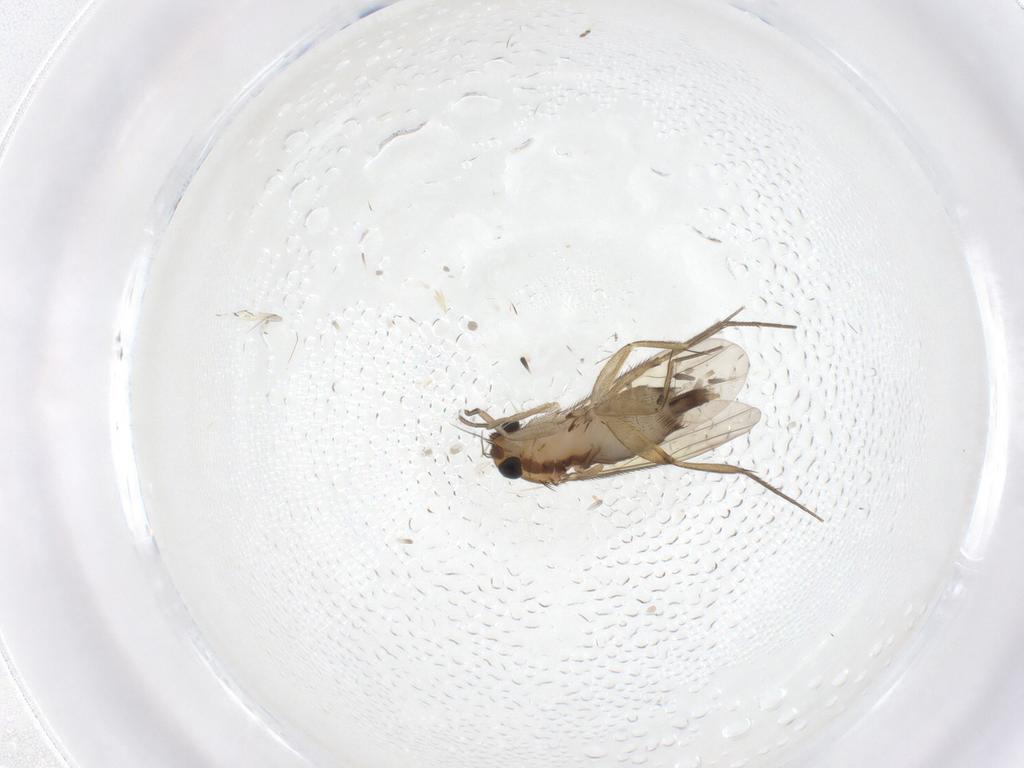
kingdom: Animalia
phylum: Arthropoda
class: Insecta
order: Diptera
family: Phoridae
